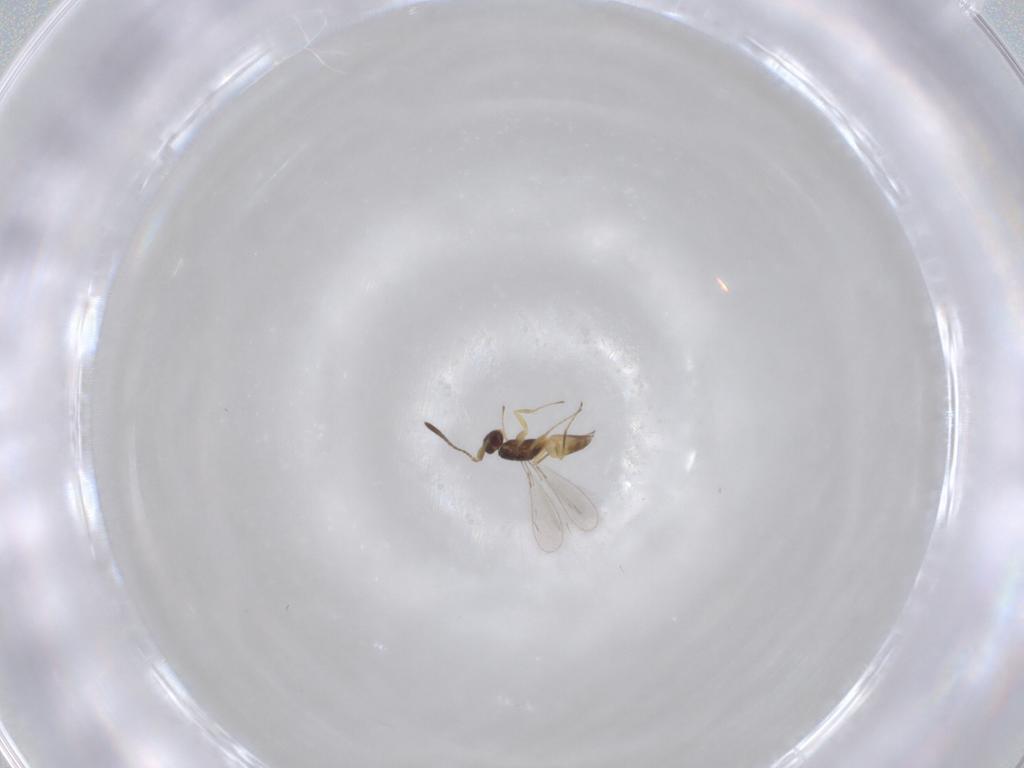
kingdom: Animalia
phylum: Arthropoda
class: Insecta
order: Hymenoptera
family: Mymaridae
